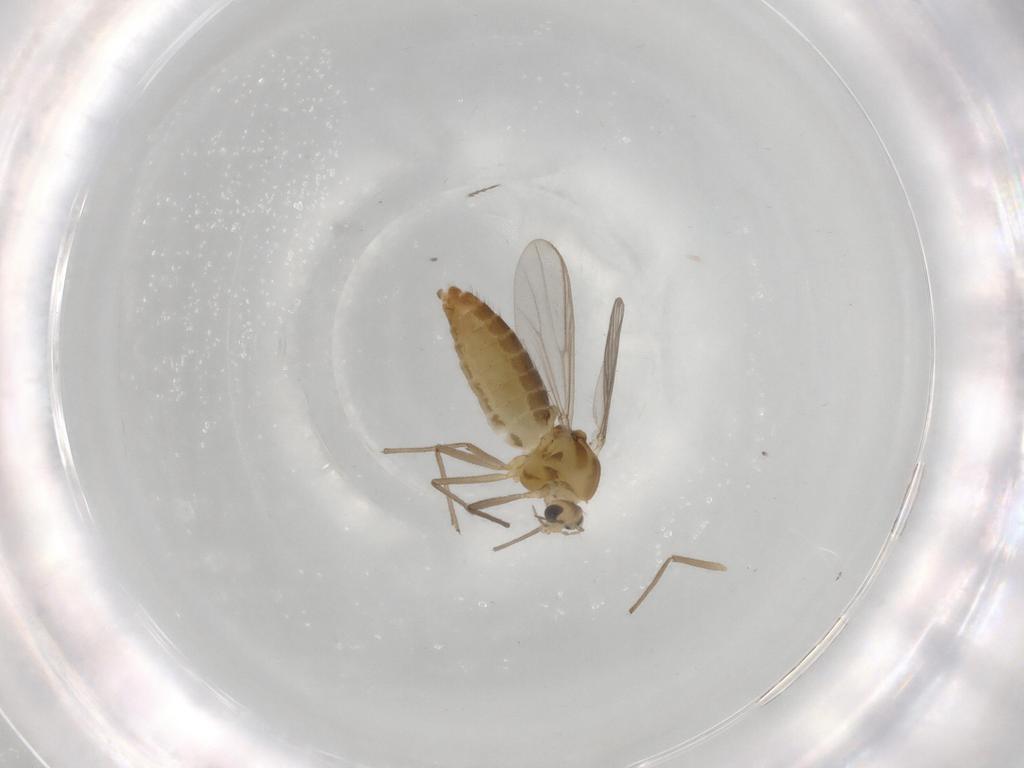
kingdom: Animalia
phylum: Arthropoda
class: Insecta
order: Diptera
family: Chironomidae
